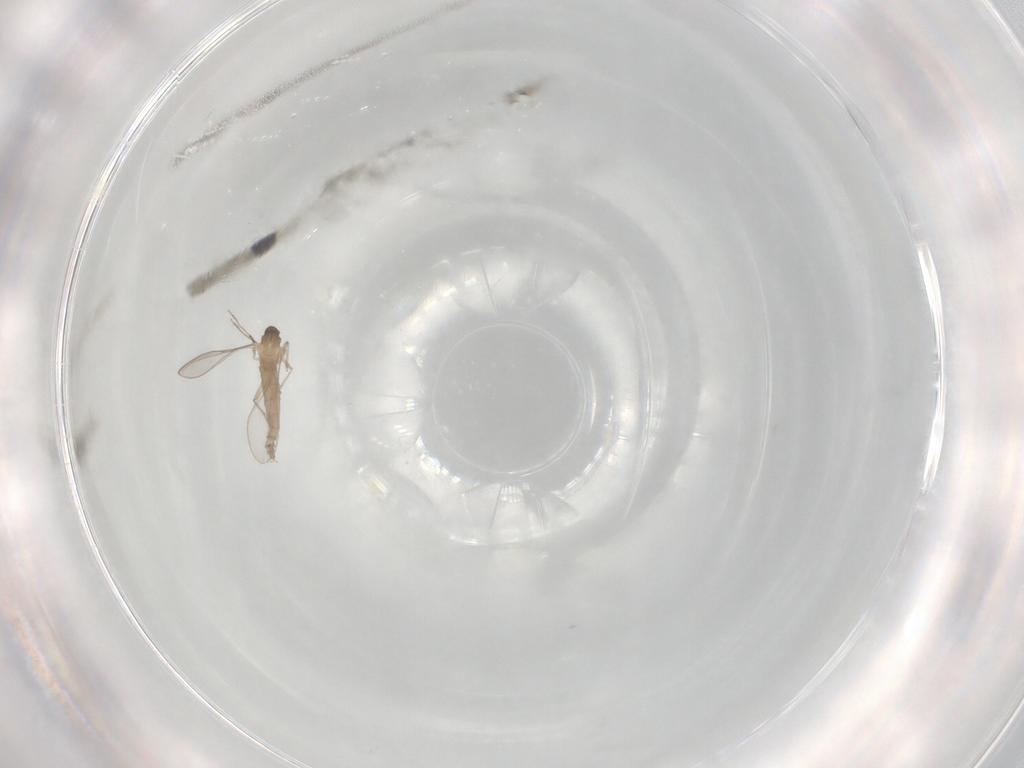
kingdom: Animalia
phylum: Arthropoda
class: Insecta
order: Diptera
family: Cecidomyiidae
